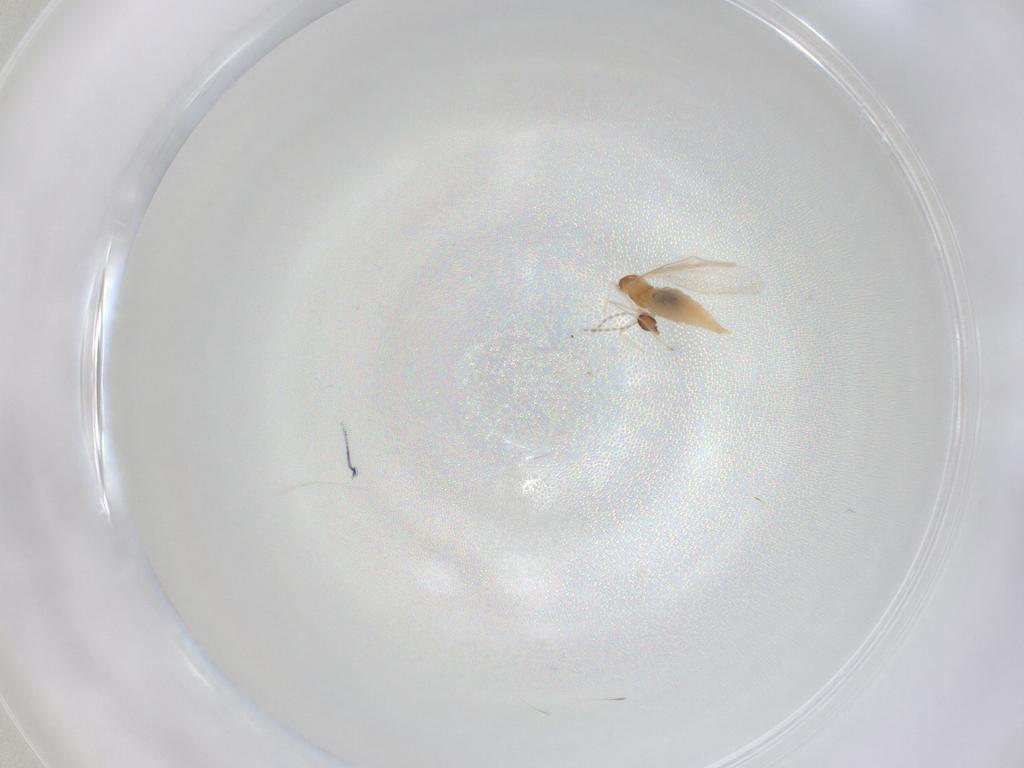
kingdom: Animalia
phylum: Arthropoda
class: Insecta
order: Diptera
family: Cecidomyiidae
